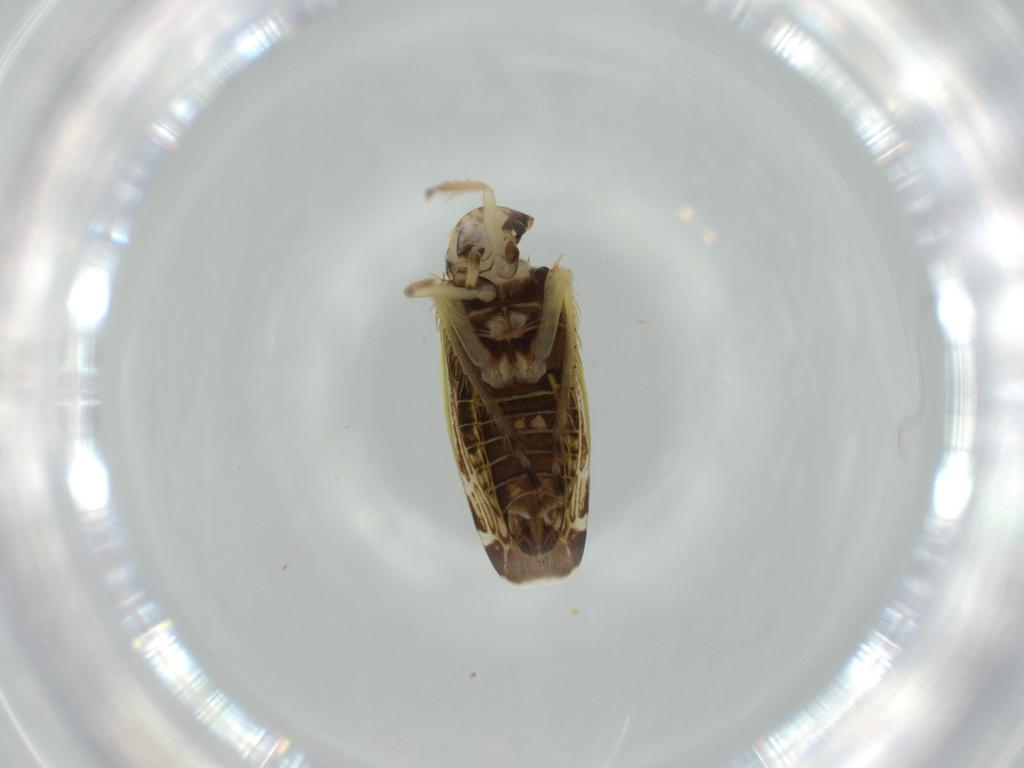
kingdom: Animalia
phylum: Arthropoda
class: Insecta
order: Hemiptera
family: Cicadellidae
